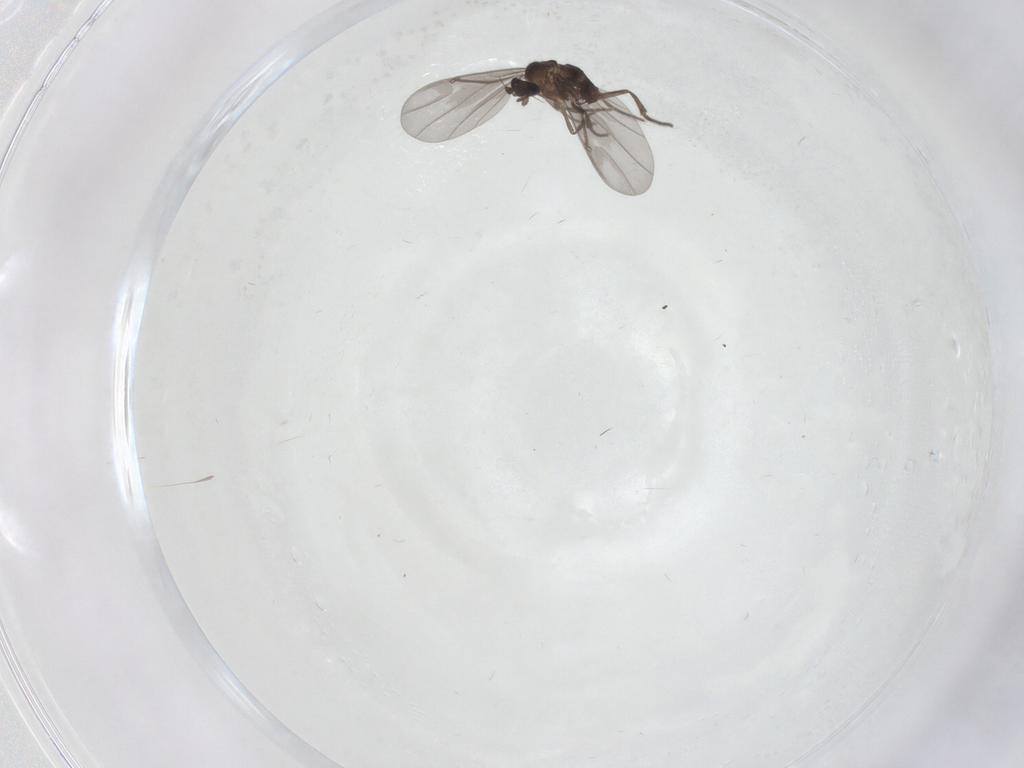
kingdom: Animalia
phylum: Arthropoda
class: Insecta
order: Diptera
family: Phoridae
